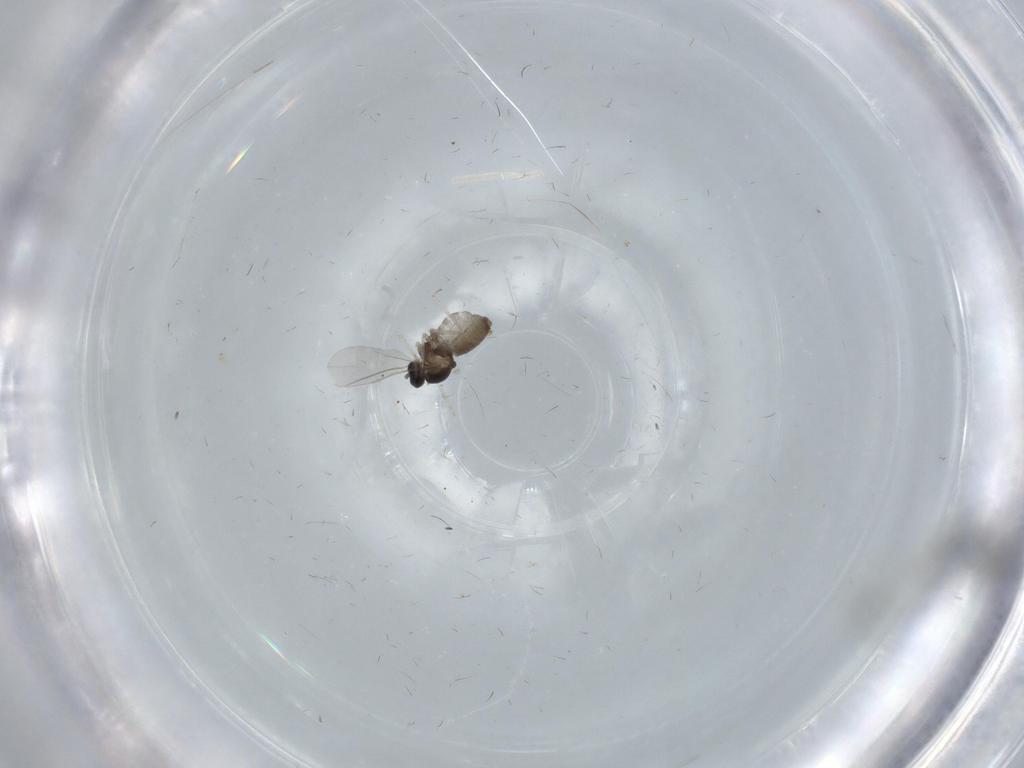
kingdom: Animalia
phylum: Arthropoda
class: Insecta
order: Diptera
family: Cecidomyiidae
